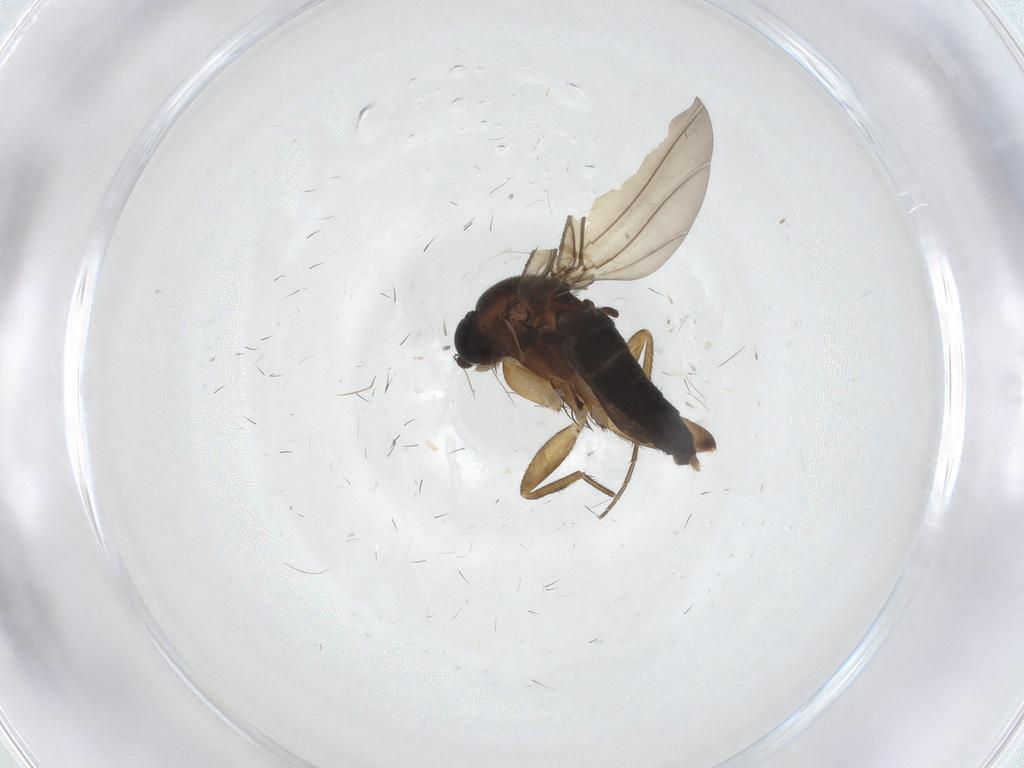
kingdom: Animalia
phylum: Arthropoda
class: Insecta
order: Diptera
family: Phoridae
